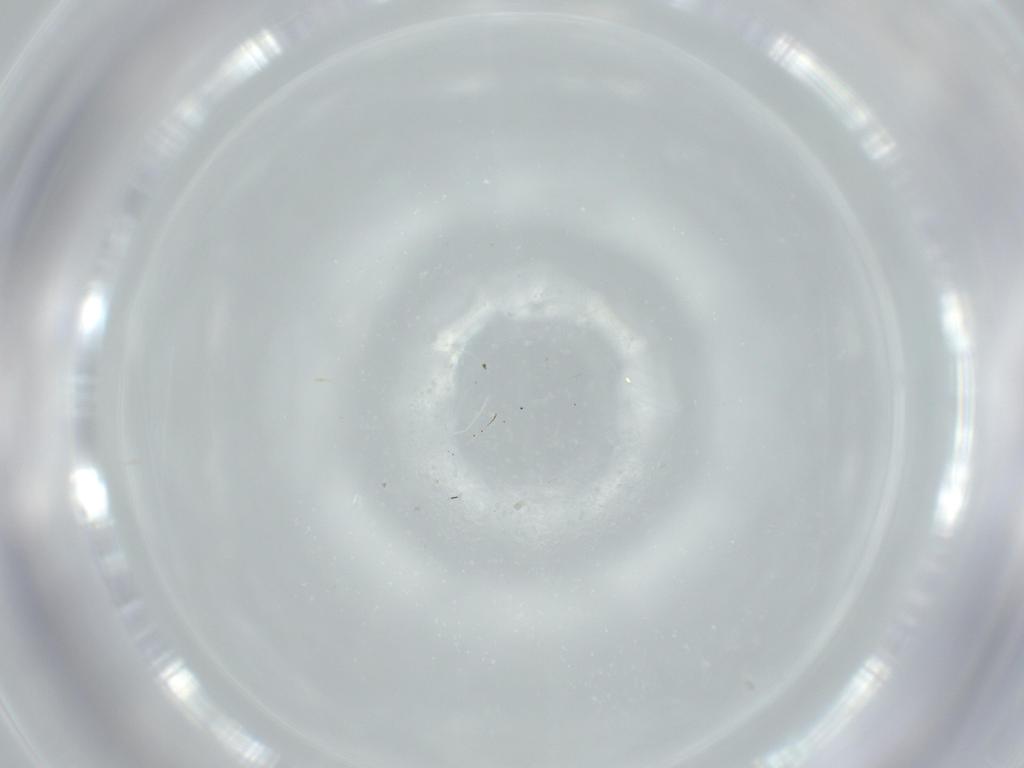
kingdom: Animalia
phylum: Arthropoda
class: Insecta
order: Diptera
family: Cecidomyiidae
